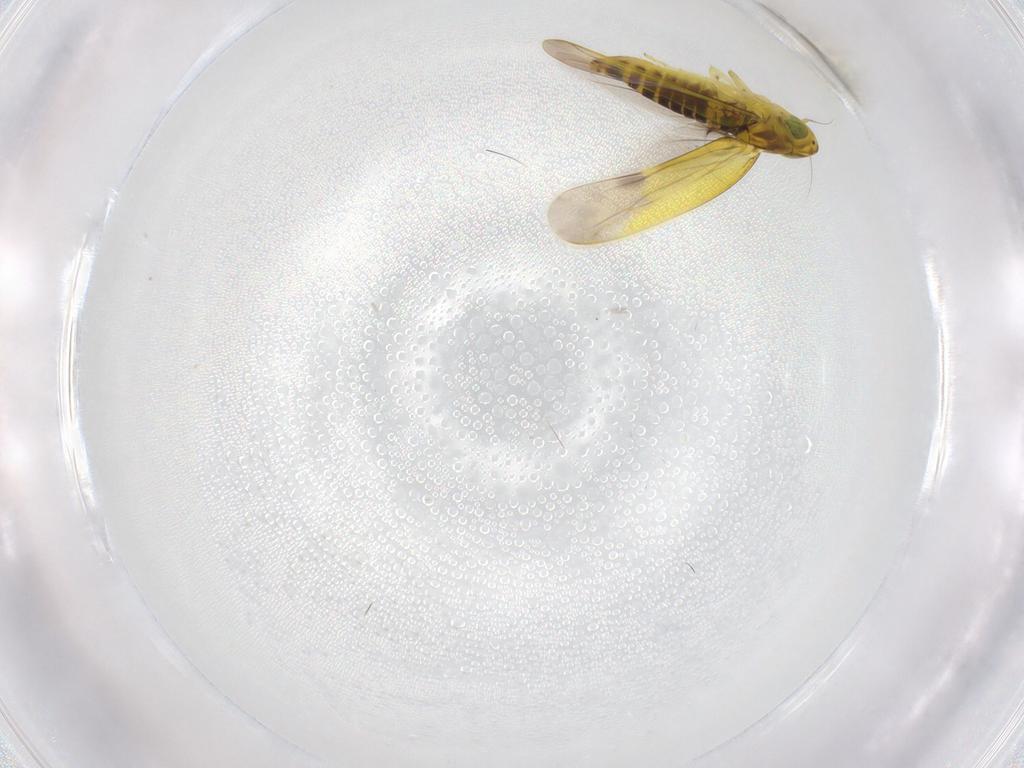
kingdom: Animalia
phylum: Arthropoda
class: Insecta
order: Hemiptera
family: Cicadellidae
